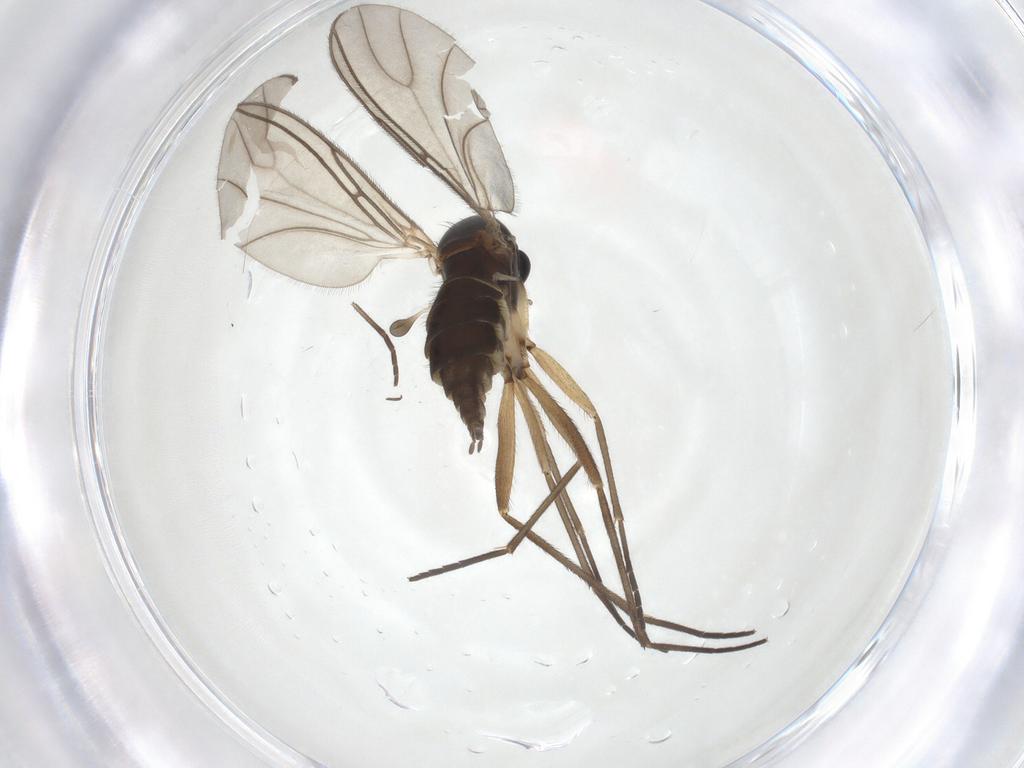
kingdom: Animalia
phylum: Arthropoda
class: Insecta
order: Diptera
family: Sciaridae
